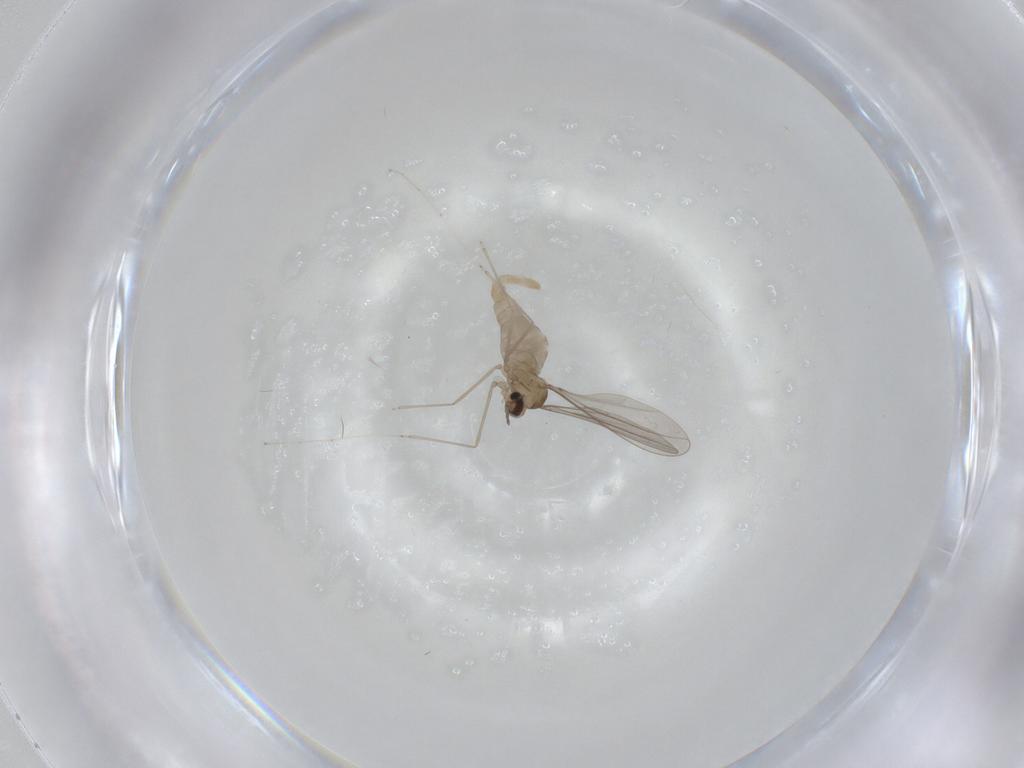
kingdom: Animalia
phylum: Arthropoda
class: Insecta
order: Diptera
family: Cecidomyiidae
